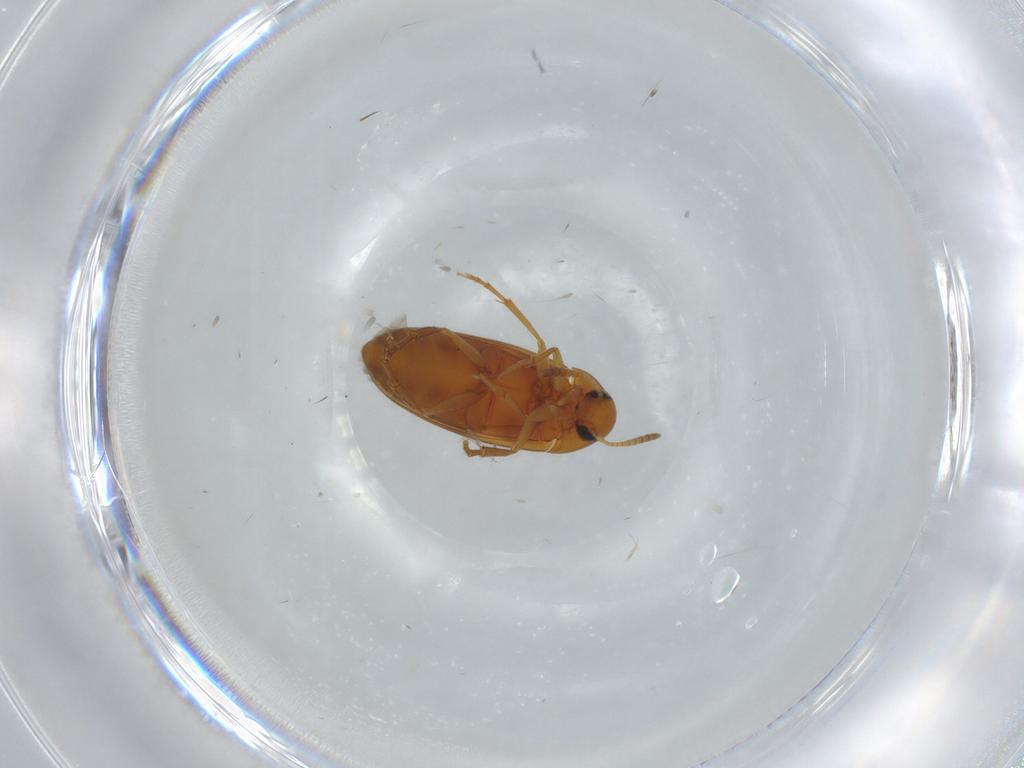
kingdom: Animalia
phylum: Arthropoda
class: Insecta
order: Coleoptera
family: Scraptiidae
